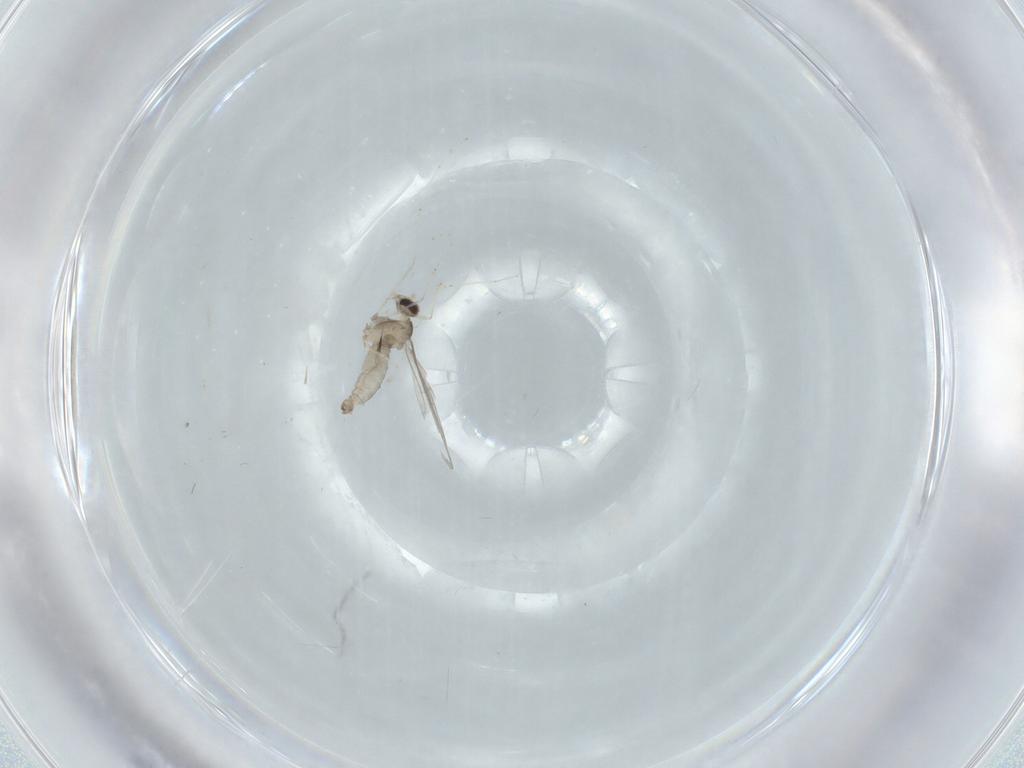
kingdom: Animalia
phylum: Arthropoda
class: Insecta
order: Diptera
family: Cecidomyiidae
